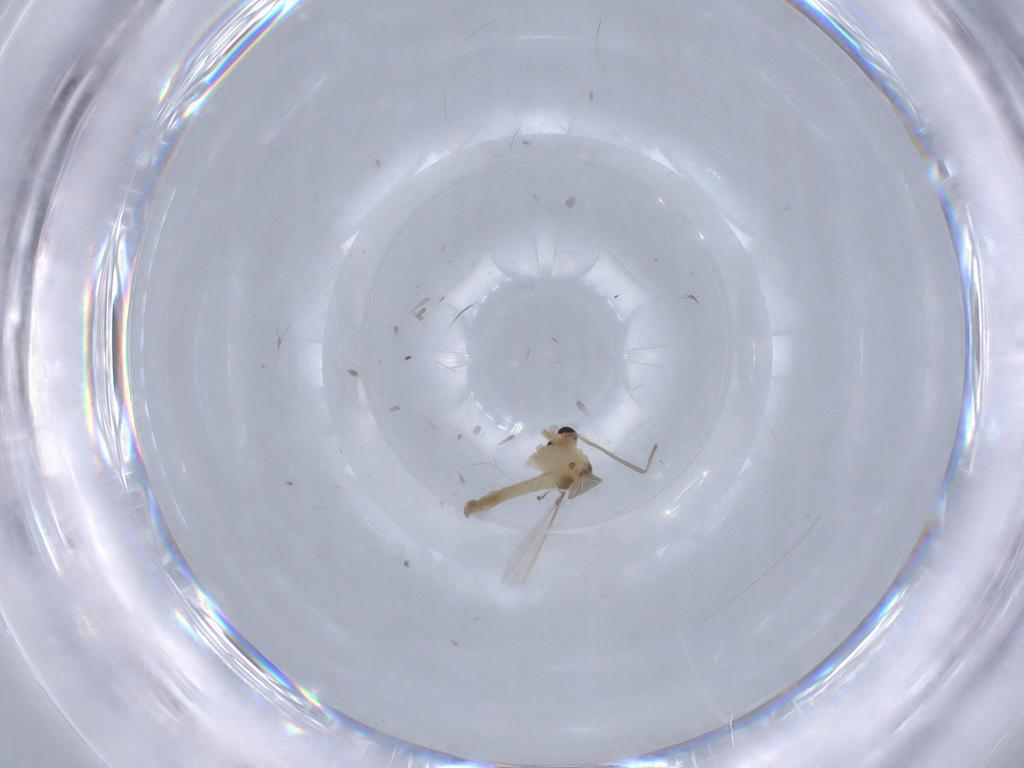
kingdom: Animalia
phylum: Arthropoda
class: Insecta
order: Diptera
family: Chironomidae
